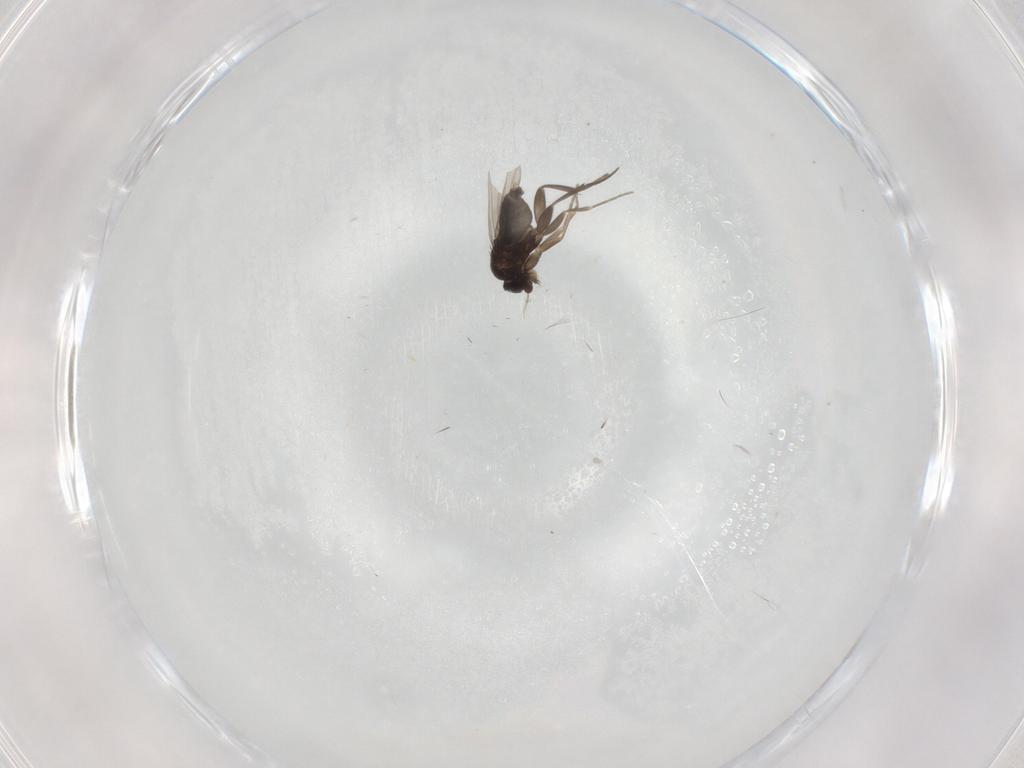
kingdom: Animalia
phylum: Arthropoda
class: Insecta
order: Diptera
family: Phoridae
